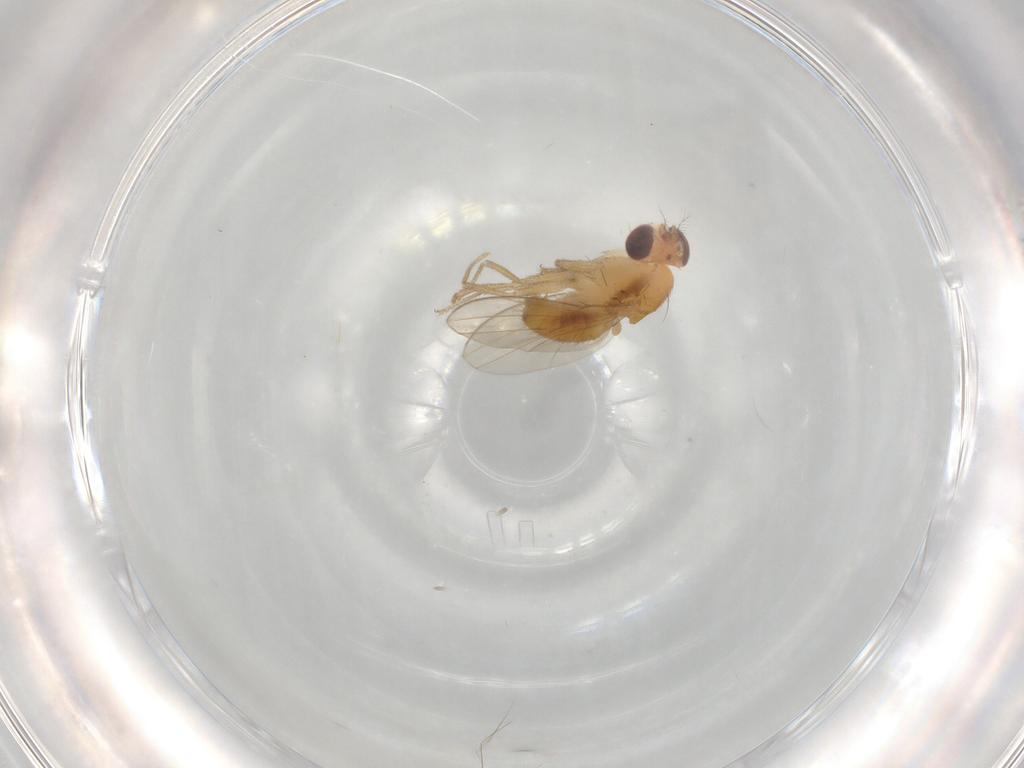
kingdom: Animalia
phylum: Arthropoda
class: Insecta
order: Diptera
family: Drosophilidae
